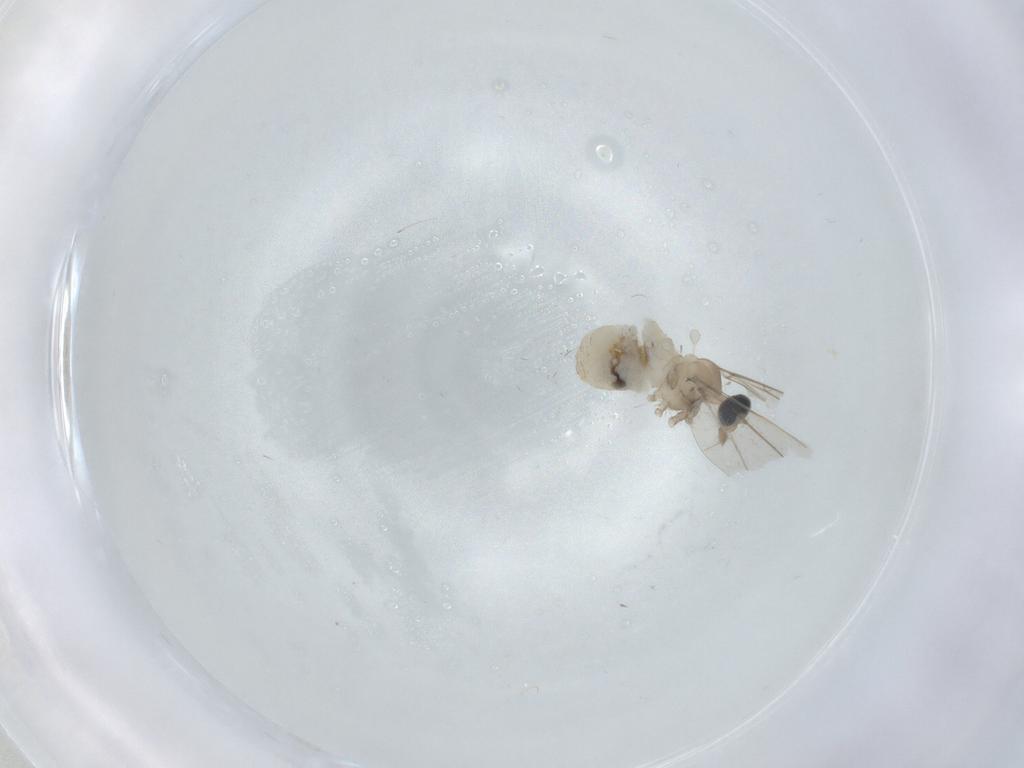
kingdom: Animalia
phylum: Arthropoda
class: Insecta
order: Diptera
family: Cecidomyiidae
